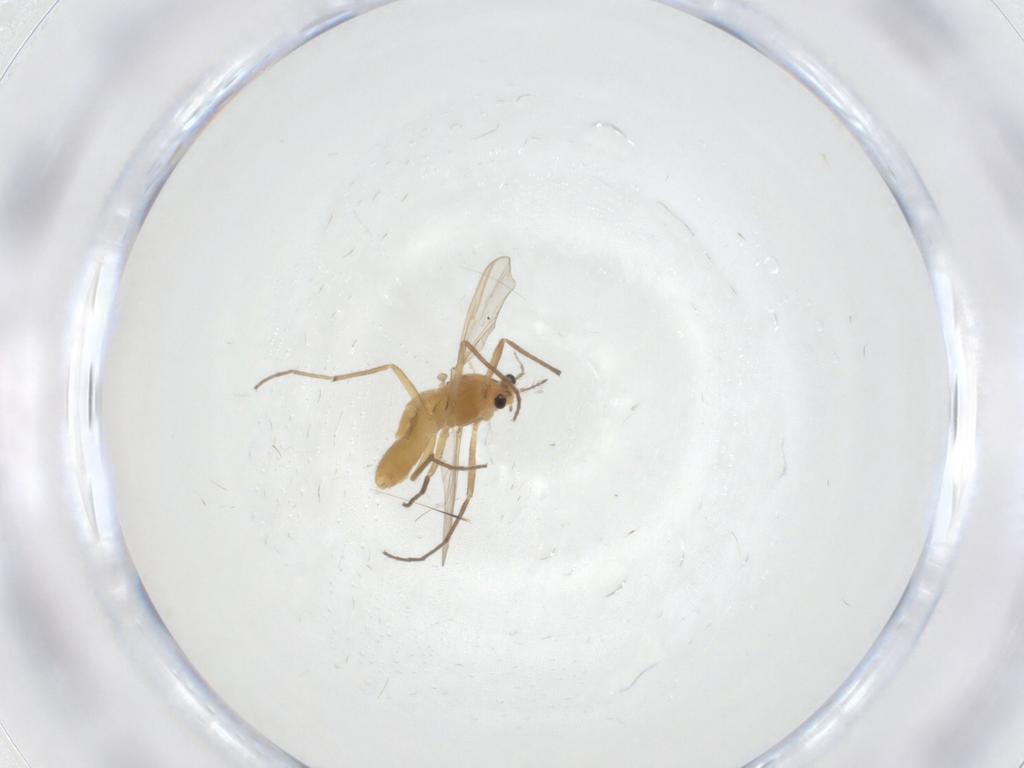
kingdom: Animalia
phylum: Arthropoda
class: Insecta
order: Diptera
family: Chironomidae
